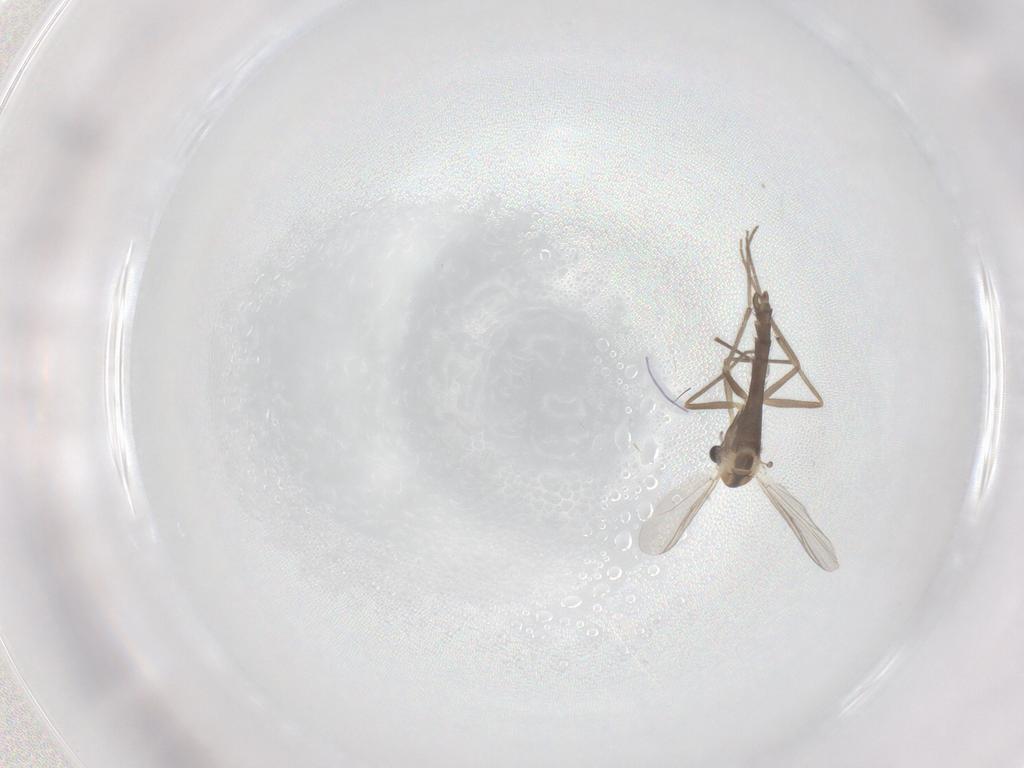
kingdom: Animalia
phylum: Arthropoda
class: Insecta
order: Diptera
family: Chironomidae
